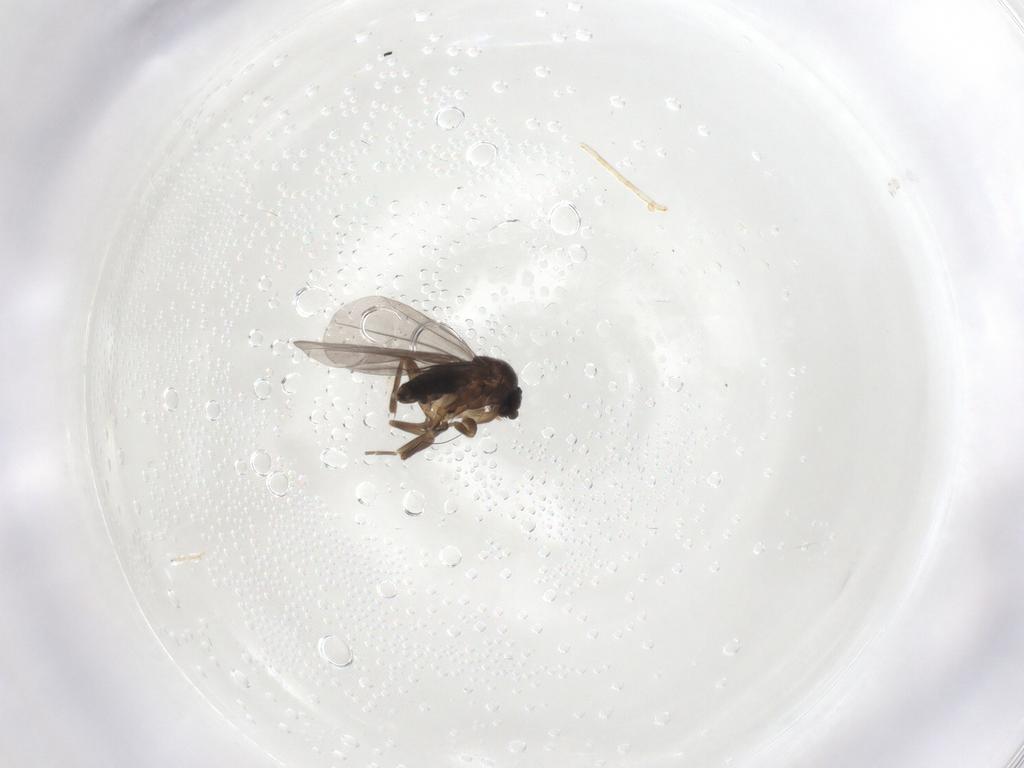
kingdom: Animalia
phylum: Arthropoda
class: Insecta
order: Diptera
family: Phoridae
